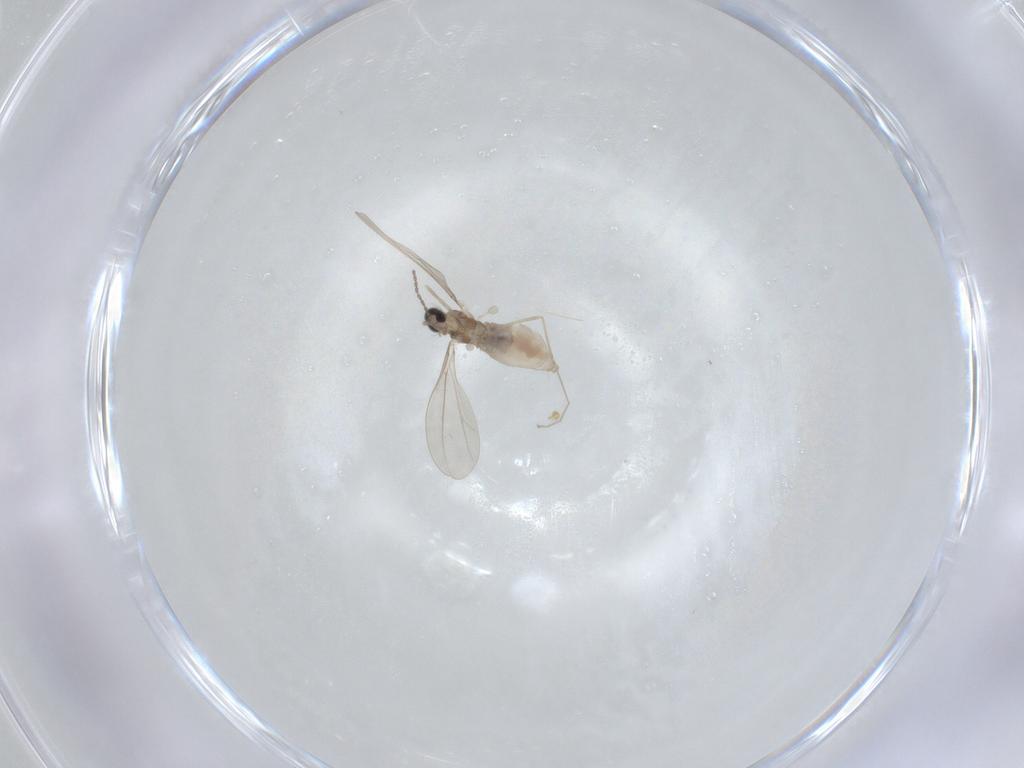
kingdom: Animalia
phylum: Arthropoda
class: Insecta
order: Diptera
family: Cecidomyiidae
